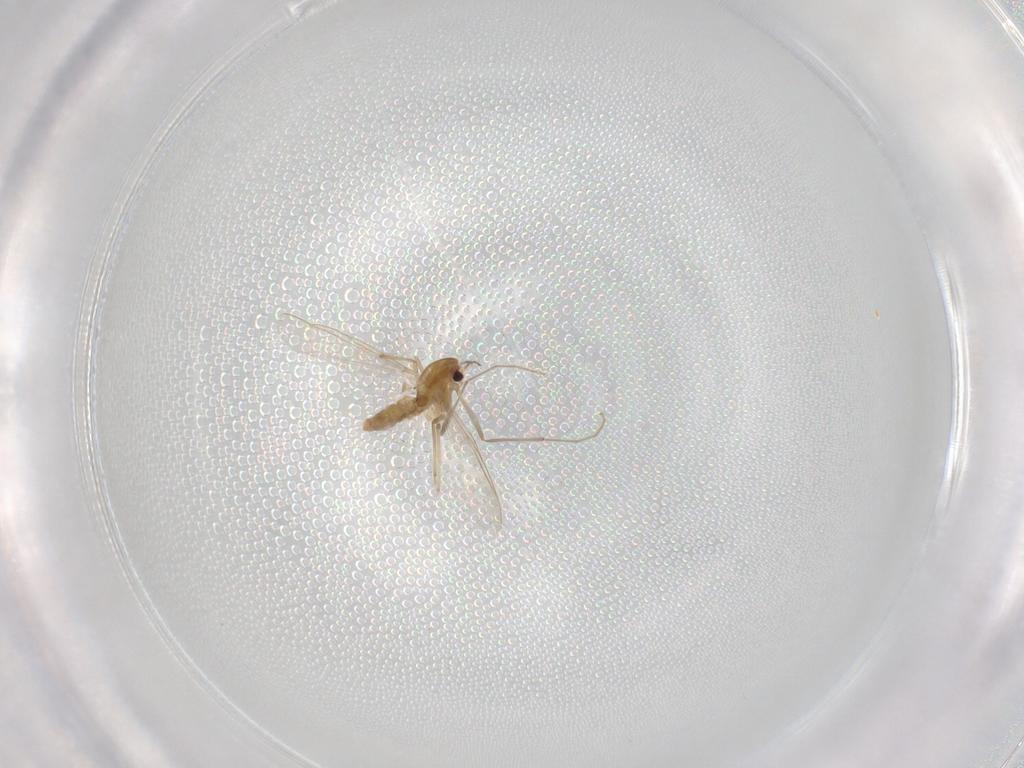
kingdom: Animalia
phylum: Arthropoda
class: Insecta
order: Diptera
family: Chironomidae
